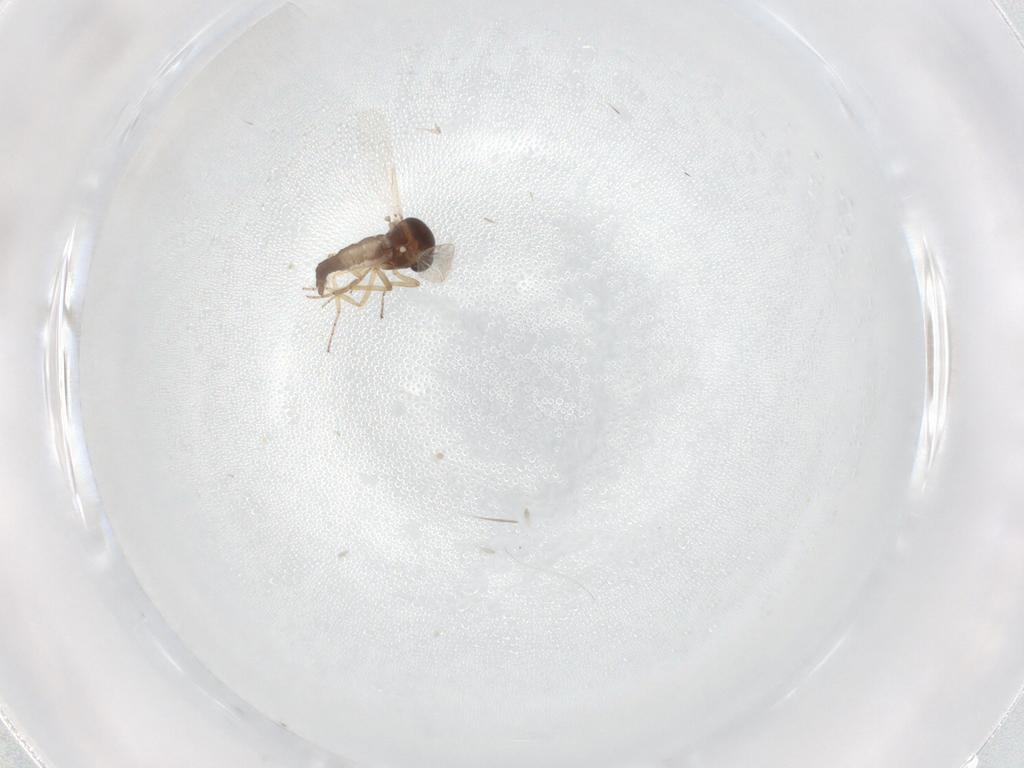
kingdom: Animalia
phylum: Arthropoda
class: Insecta
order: Diptera
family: Ceratopogonidae
